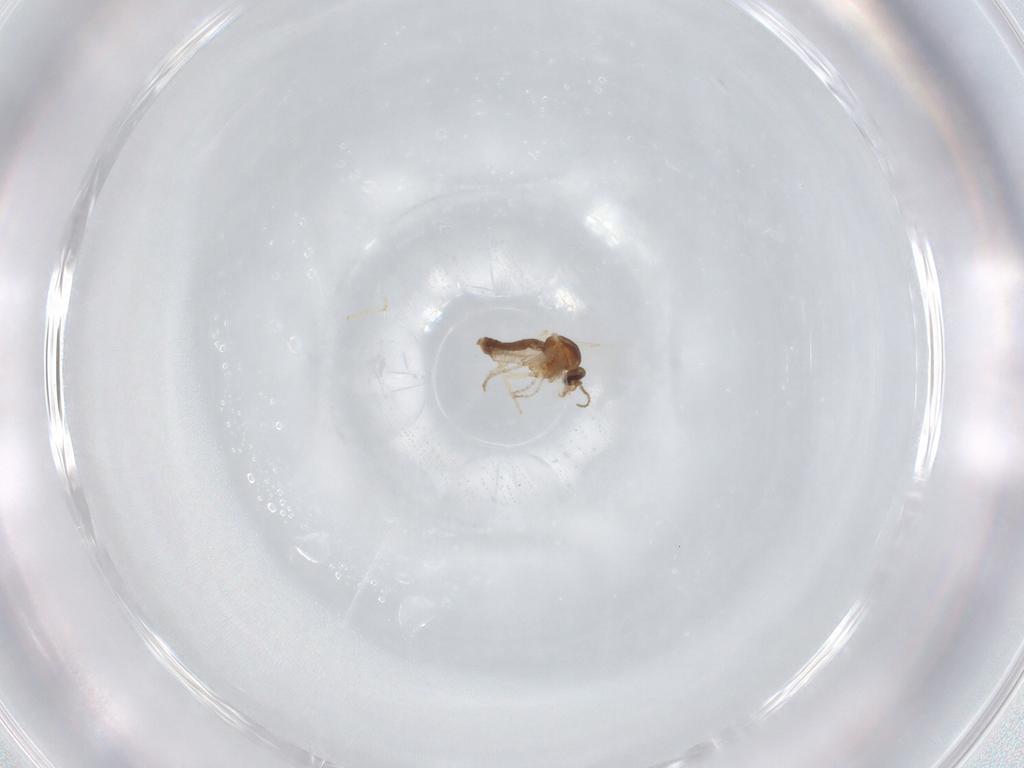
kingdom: Animalia
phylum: Arthropoda
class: Insecta
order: Diptera
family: Ceratopogonidae
